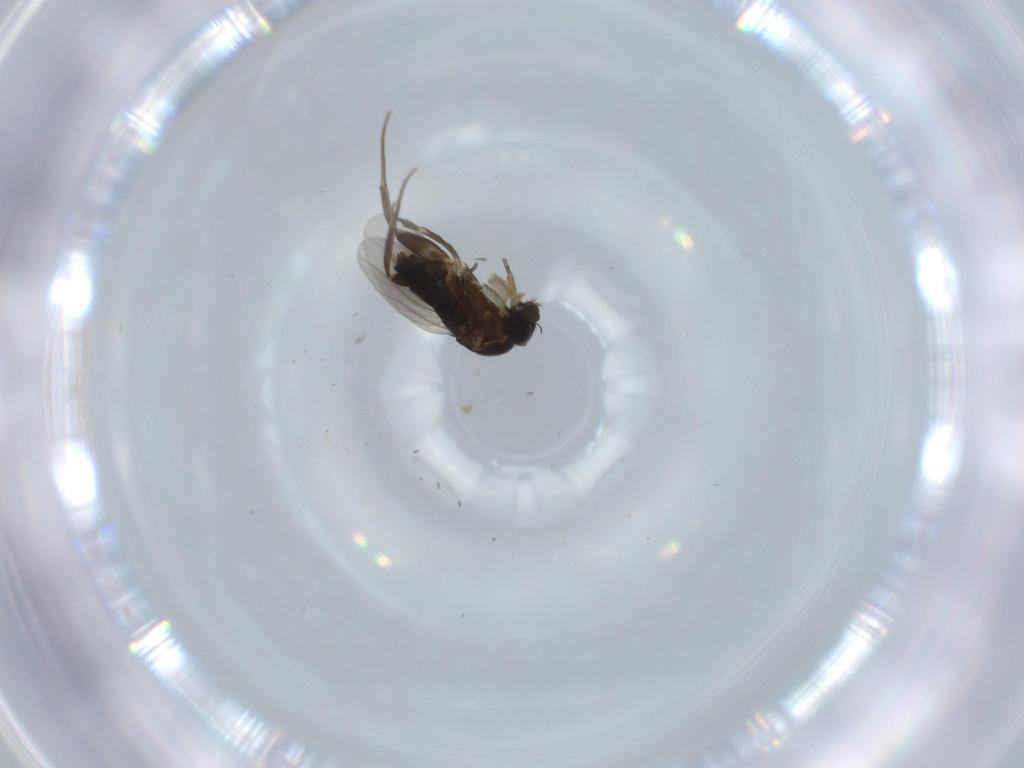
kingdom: Animalia
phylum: Arthropoda
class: Insecta
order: Diptera
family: Phoridae
